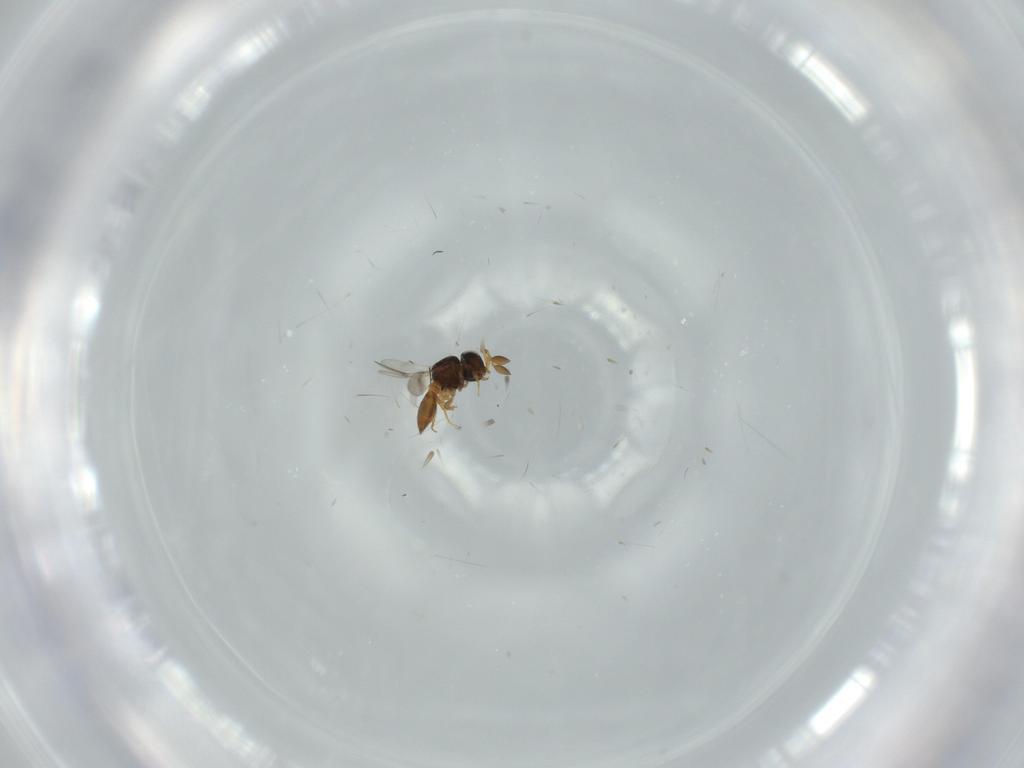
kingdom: Animalia
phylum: Arthropoda
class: Insecta
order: Hymenoptera
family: Scelionidae
